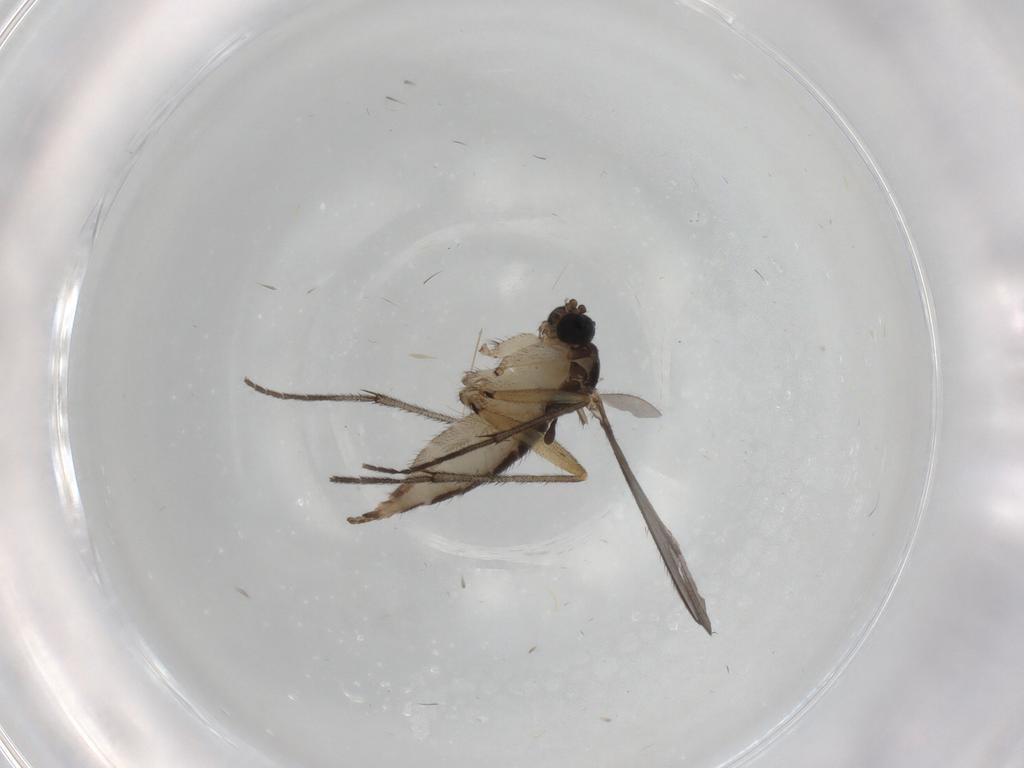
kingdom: Animalia
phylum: Arthropoda
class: Insecta
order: Diptera
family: Sciaridae
